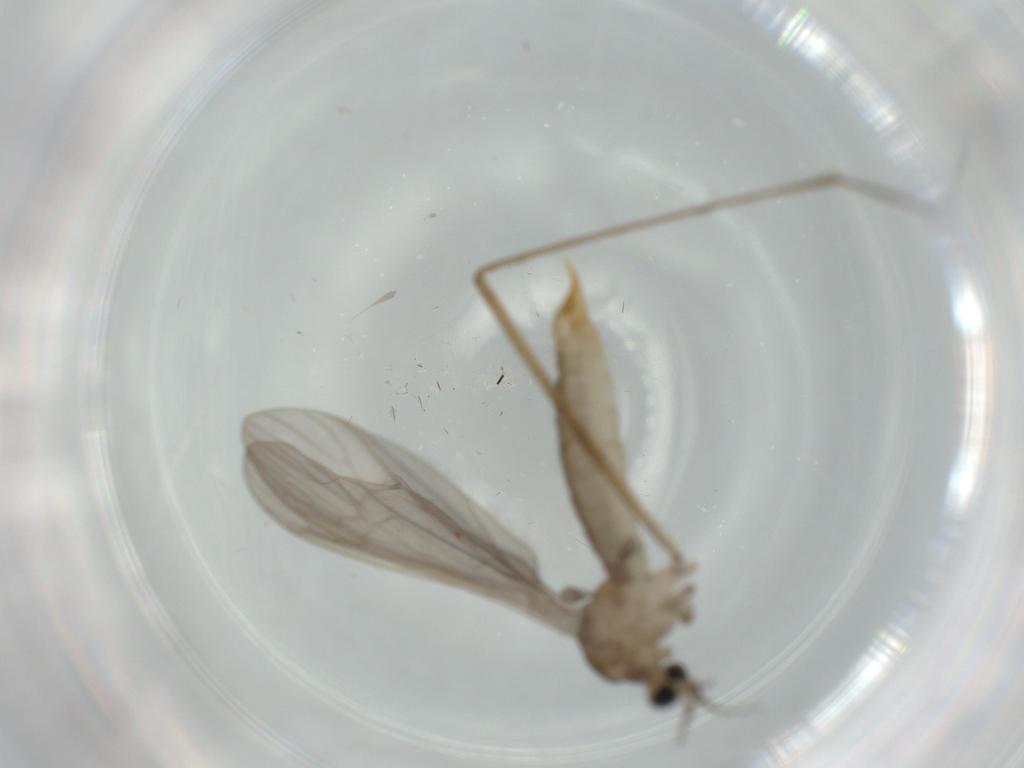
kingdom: Animalia
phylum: Arthropoda
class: Insecta
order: Diptera
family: Limoniidae
